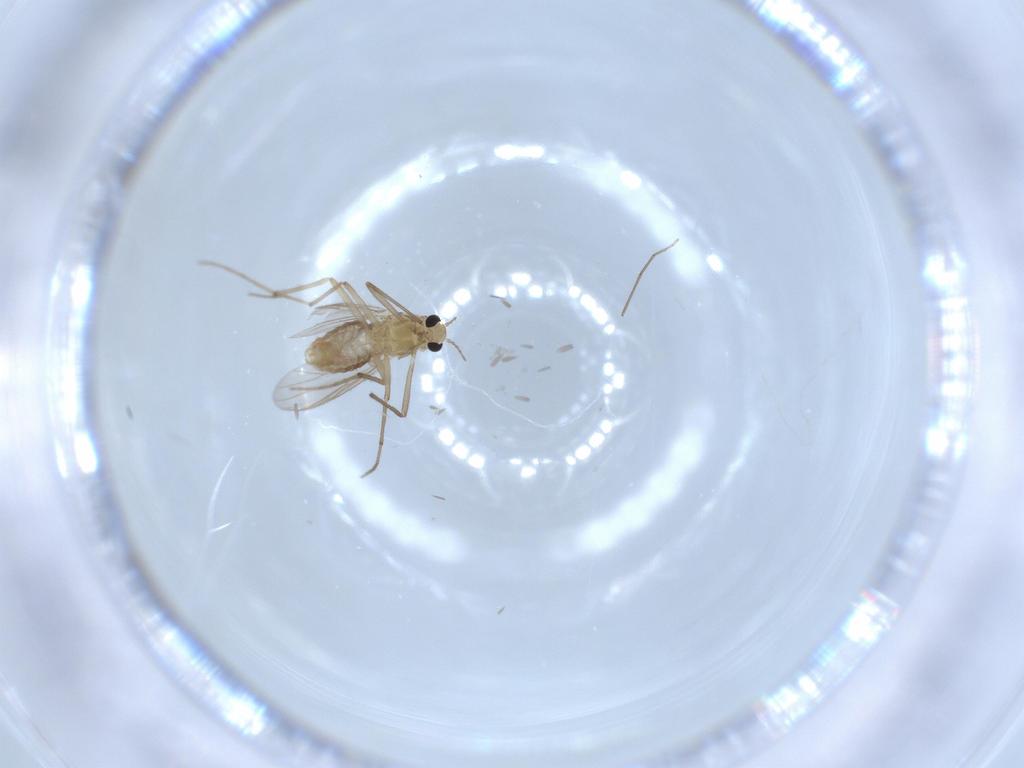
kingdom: Animalia
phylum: Arthropoda
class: Insecta
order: Diptera
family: Chironomidae
